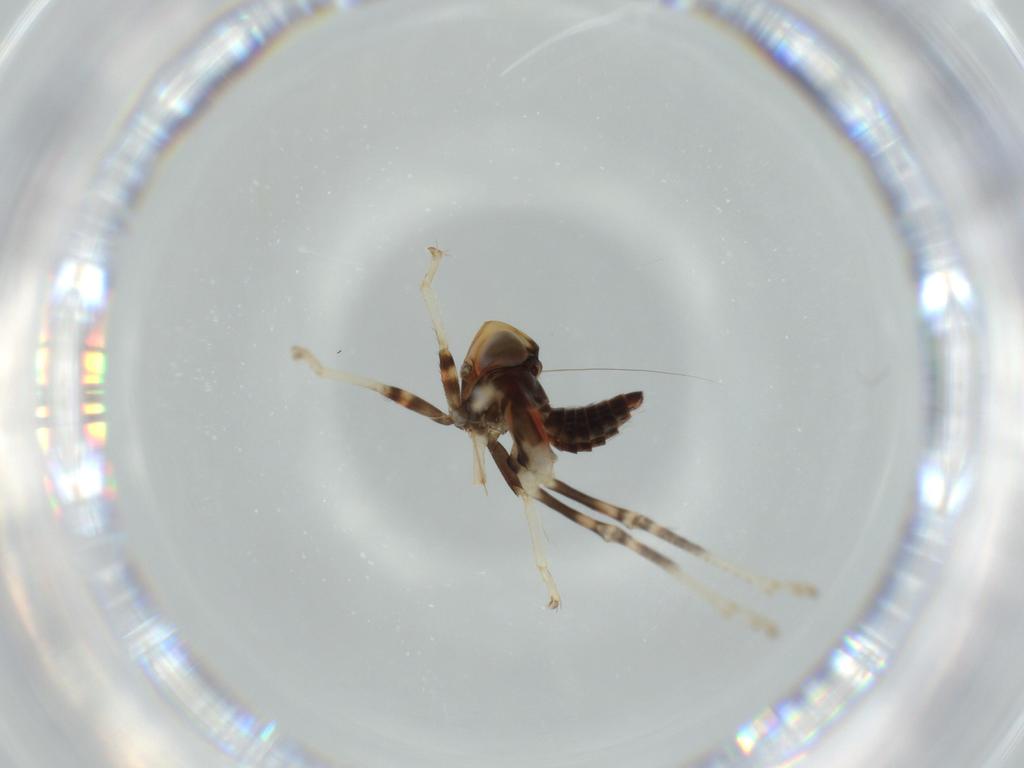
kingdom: Animalia
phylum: Arthropoda
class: Insecta
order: Hemiptera
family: Cicadellidae
